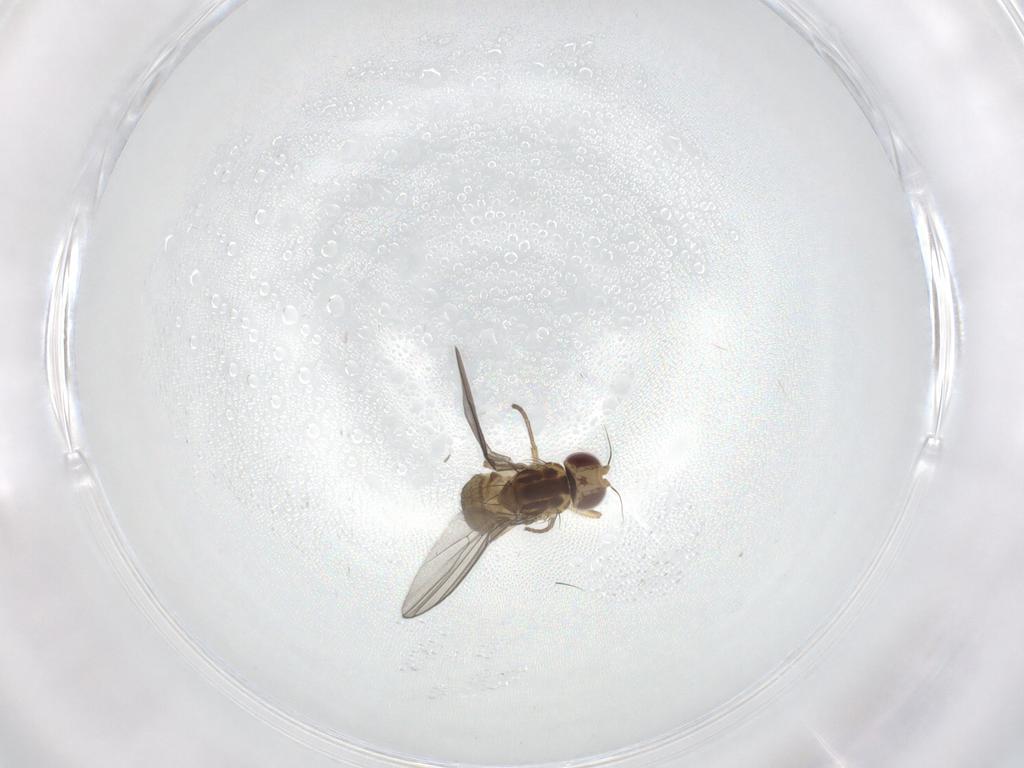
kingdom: Animalia
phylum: Arthropoda
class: Insecta
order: Diptera
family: Agromyzidae
